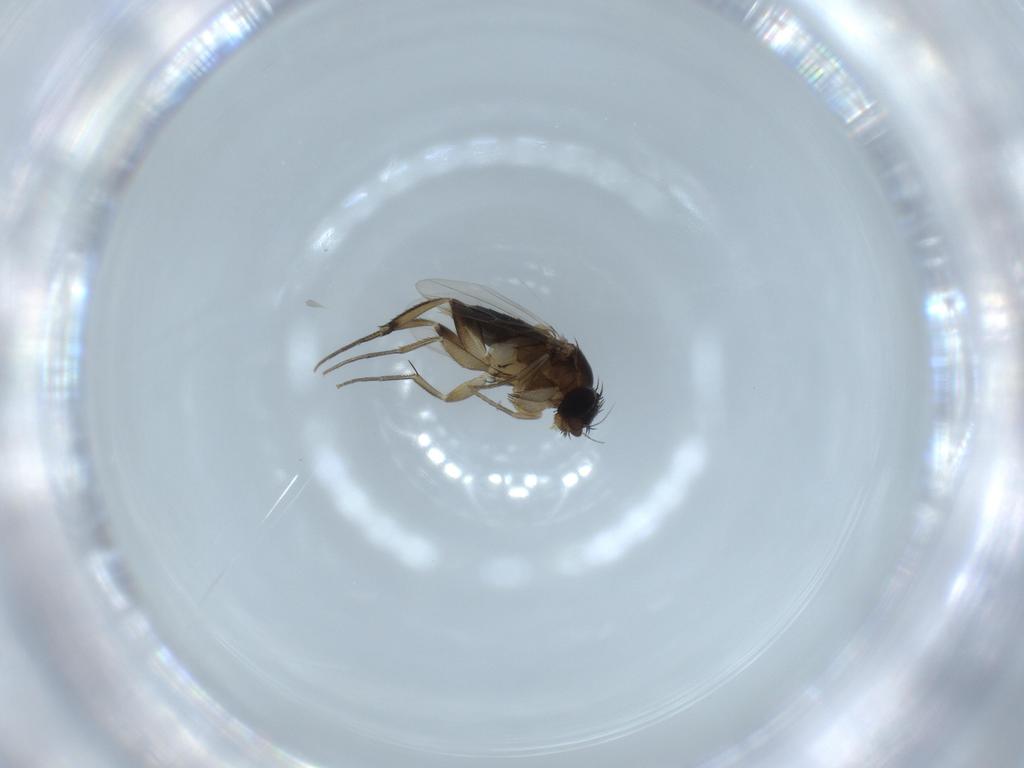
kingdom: Animalia
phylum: Arthropoda
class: Insecta
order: Diptera
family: Phoridae
